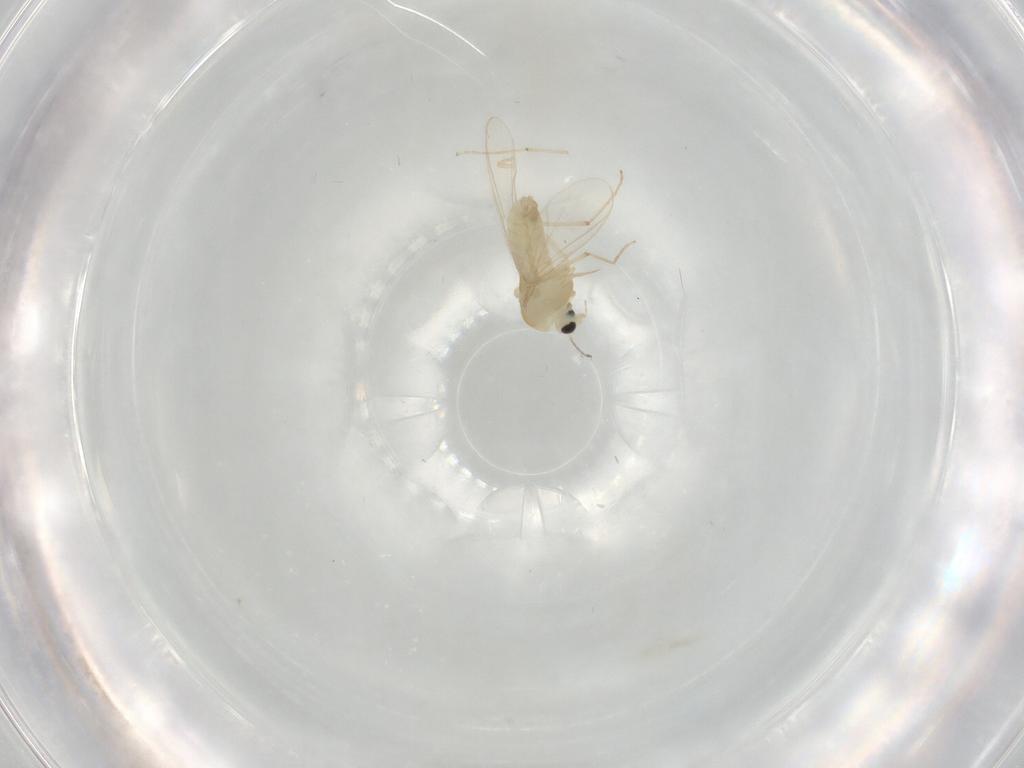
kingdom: Animalia
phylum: Arthropoda
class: Insecta
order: Diptera
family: Chironomidae
